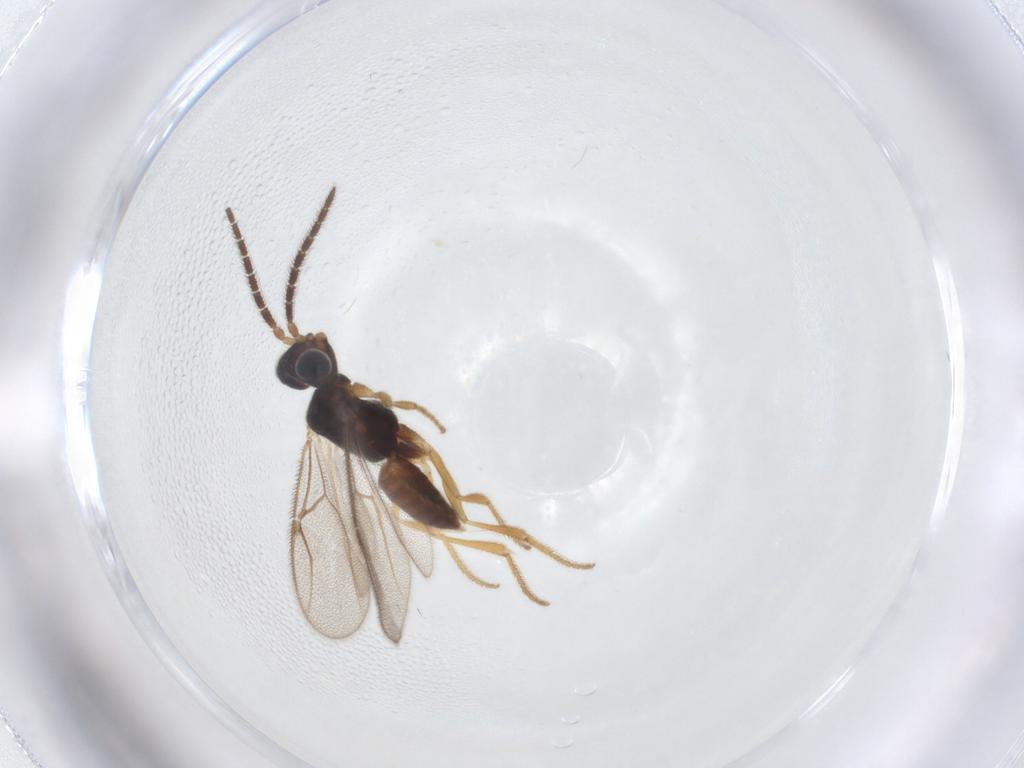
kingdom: Animalia
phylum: Arthropoda
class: Insecta
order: Hymenoptera
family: Dryinidae
